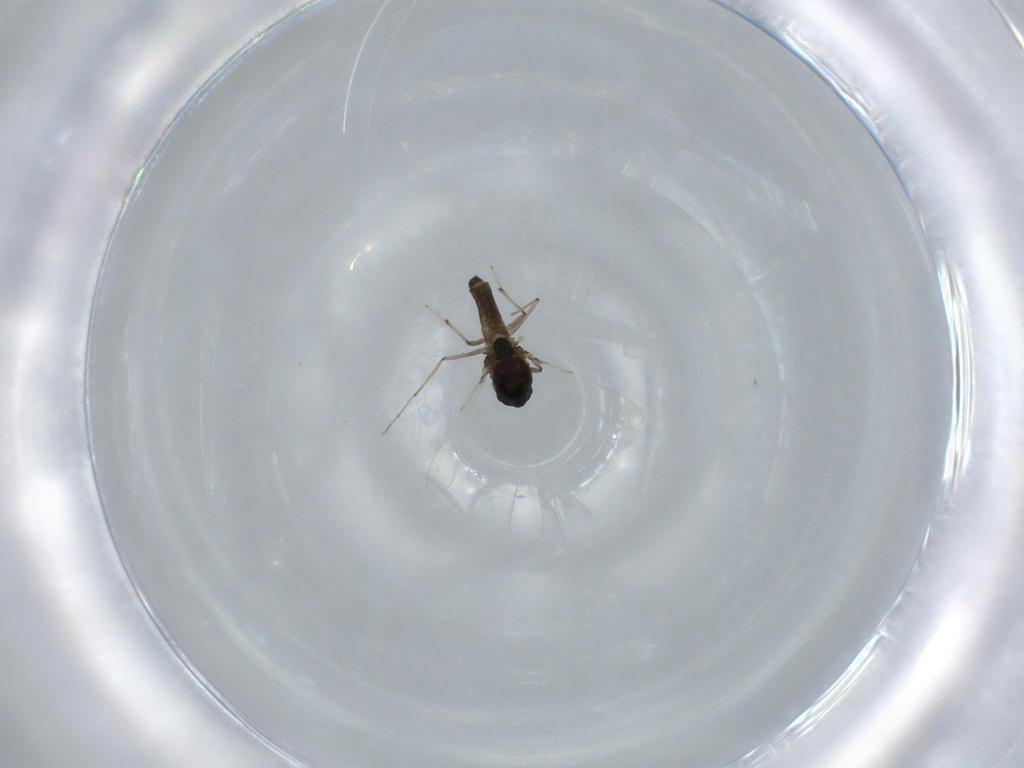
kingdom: Animalia
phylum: Arthropoda
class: Insecta
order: Diptera
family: Chironomidae
